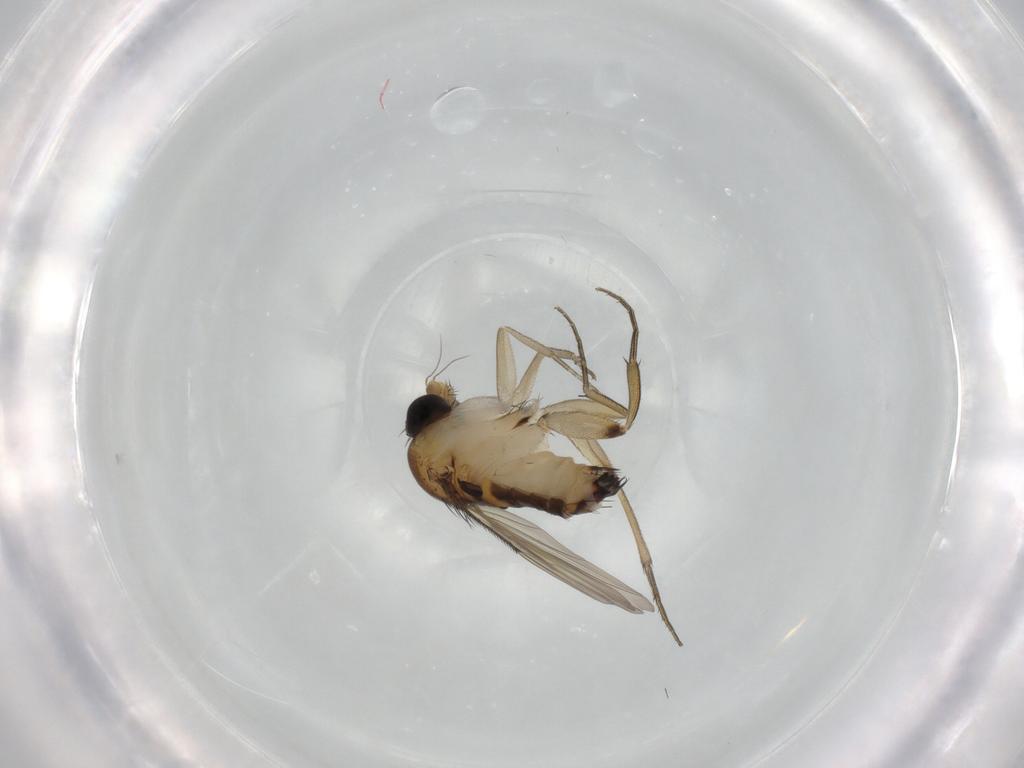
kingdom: Animalia
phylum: Arthropoda
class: Insecta
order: Diptera
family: Phoridae
